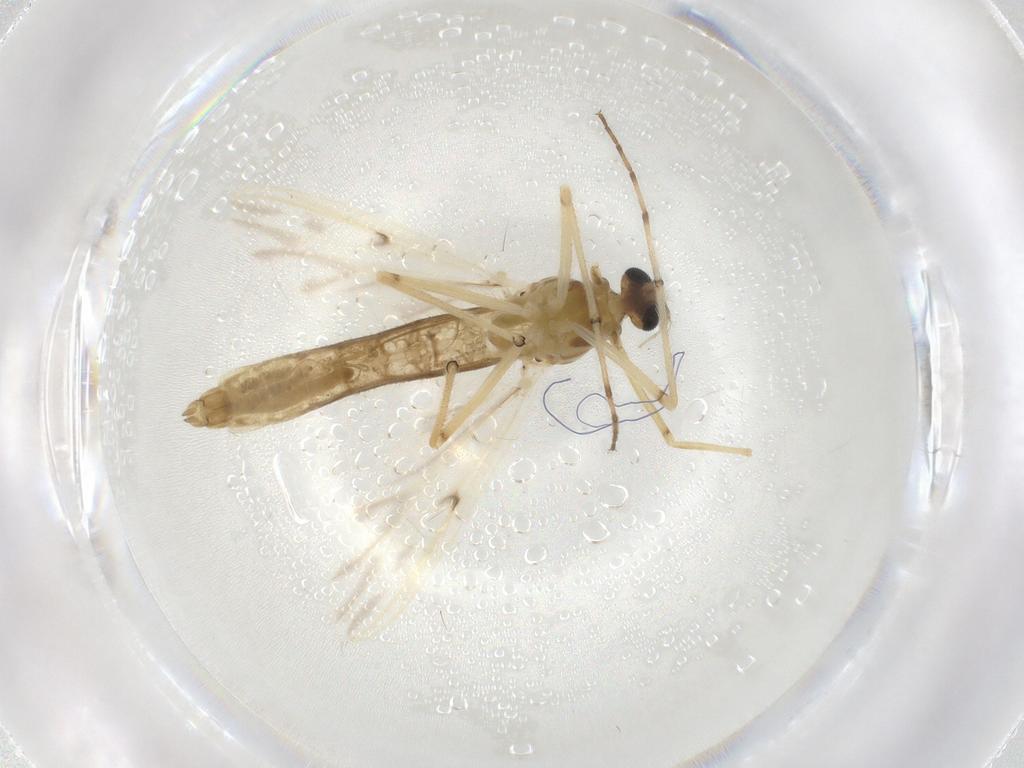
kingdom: Animalia
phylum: Arthropoda
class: Insecta
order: Diptera
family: Chironomidae
